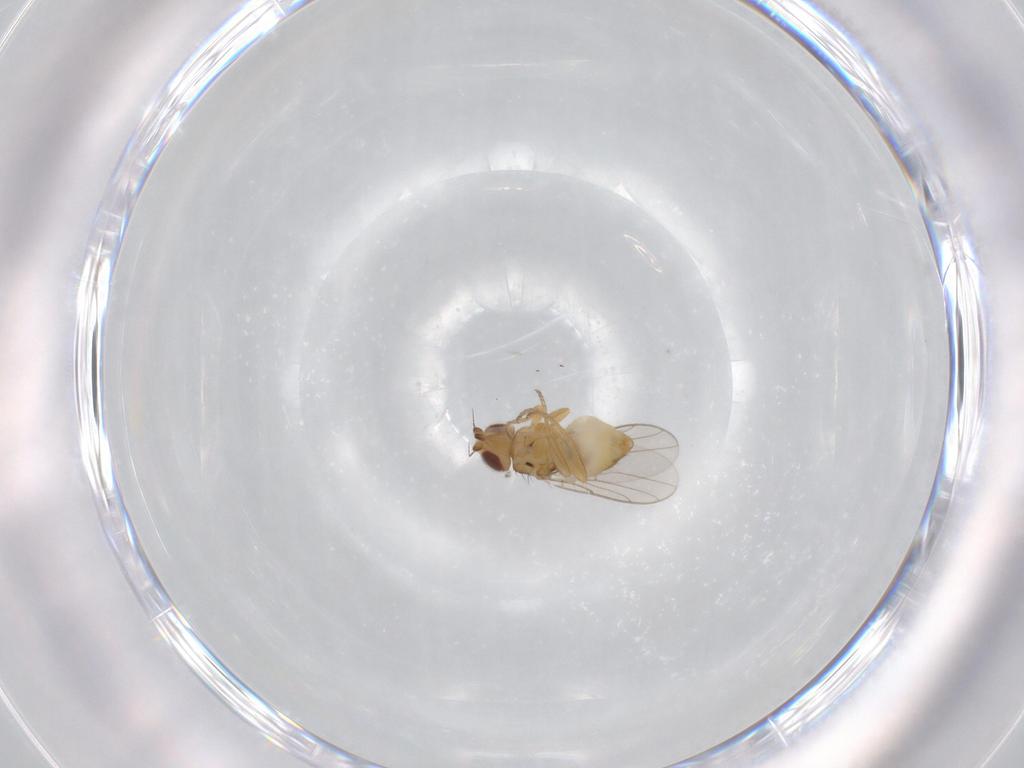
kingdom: Animalia
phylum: Arthropoda
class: Insecta
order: Diptera
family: Chloropidae
